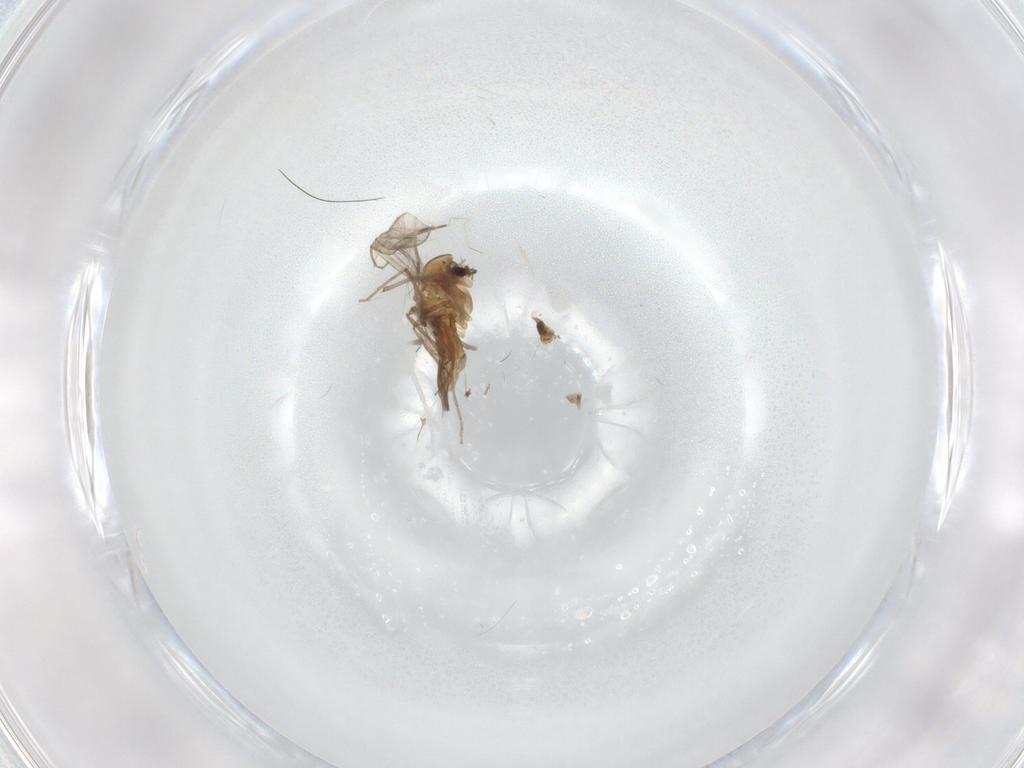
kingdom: Animalia
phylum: Arthropoda
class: Insecta
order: Diptera
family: Chironomidae
